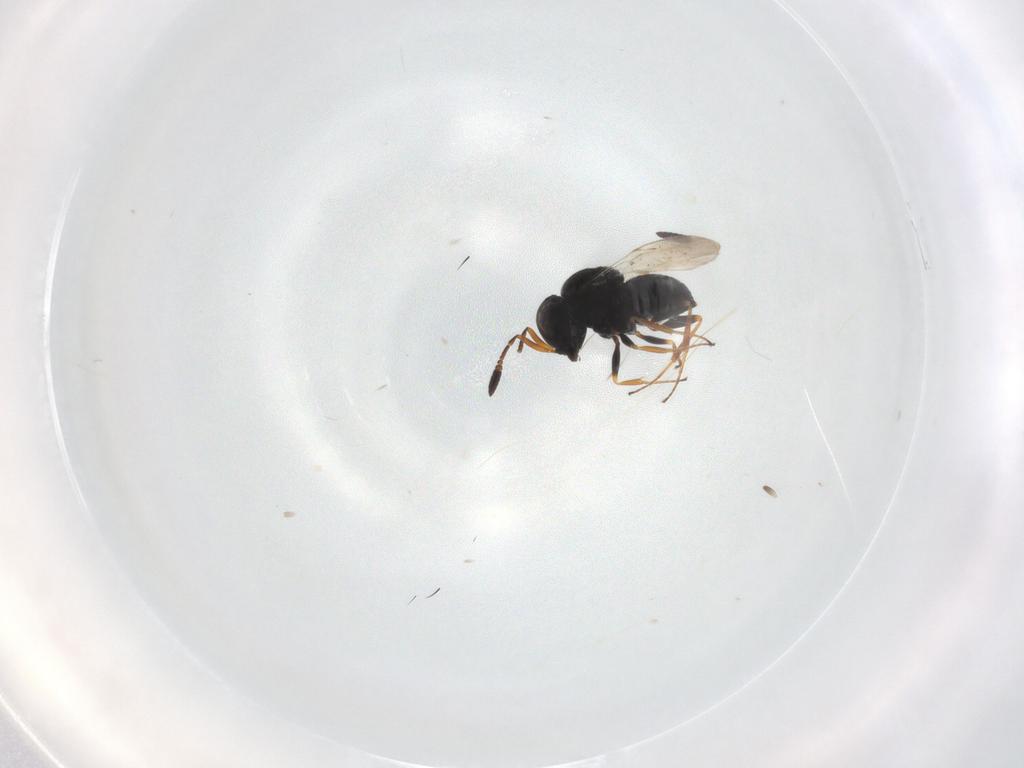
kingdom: Animalia
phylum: Arthropoda
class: Insecta
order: Coleoptera
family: Curculionidae
